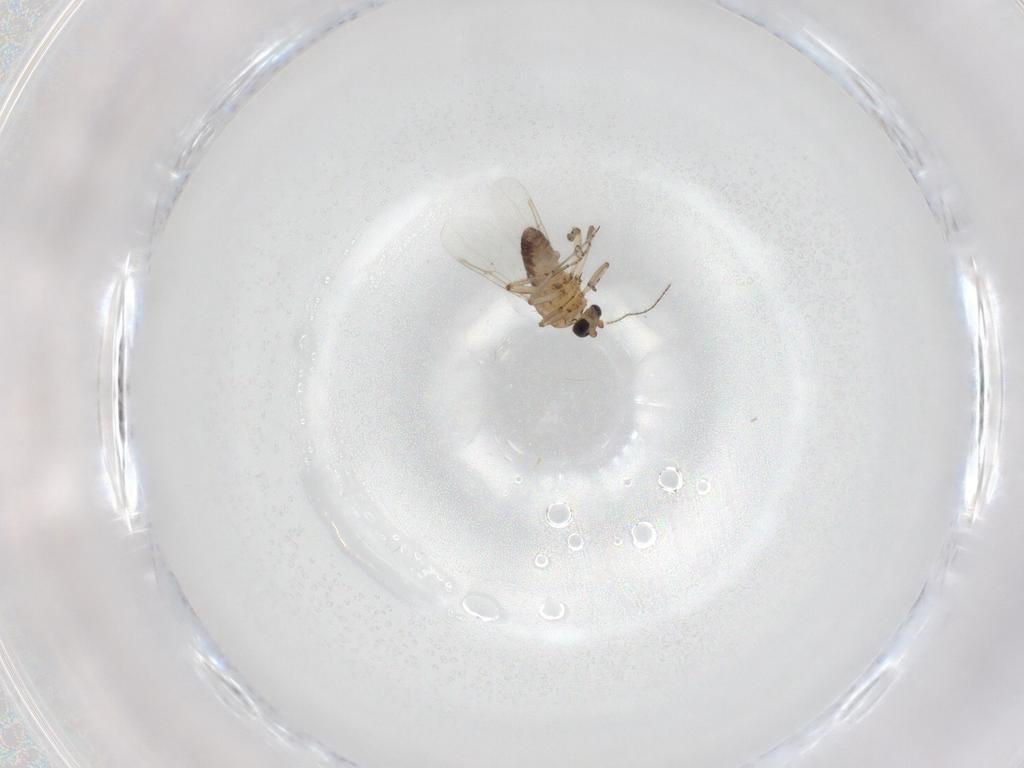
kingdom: Animalia
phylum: Arthropoda
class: Insecta
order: Diptera
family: Ceratopogonidae
